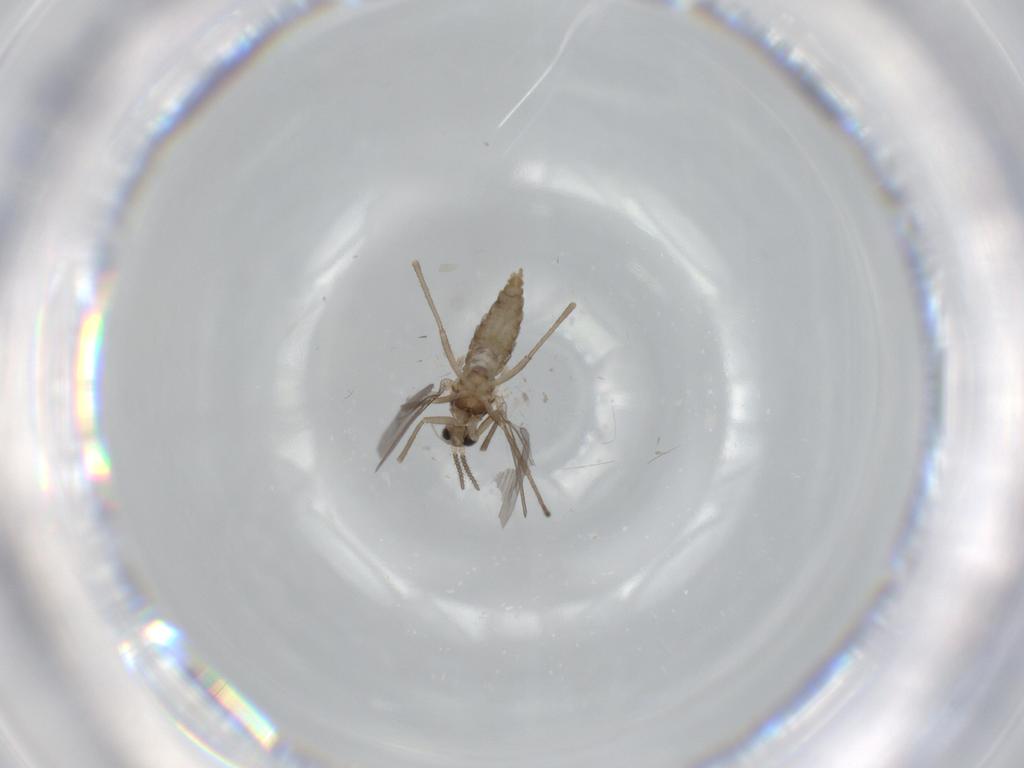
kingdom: Animalia
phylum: Arthropoda
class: Insecta
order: Diptera
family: Cecidomyiidae
